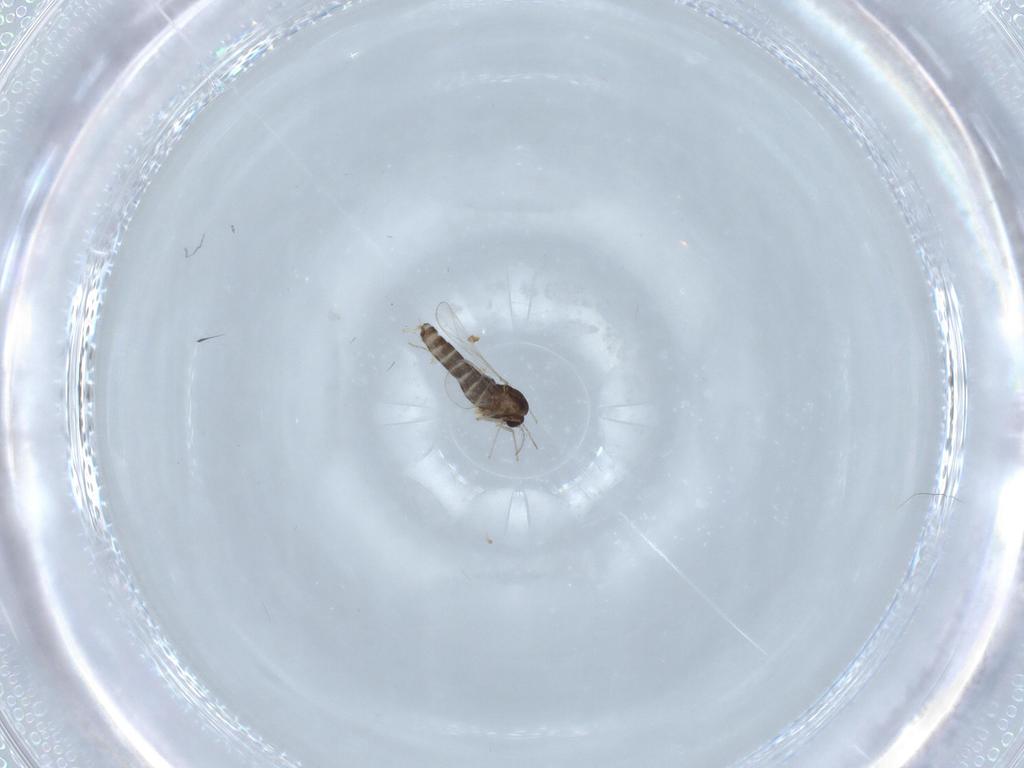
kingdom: Animalia
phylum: Arthropoda
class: Insecta
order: Diptera
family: Chironomidae
